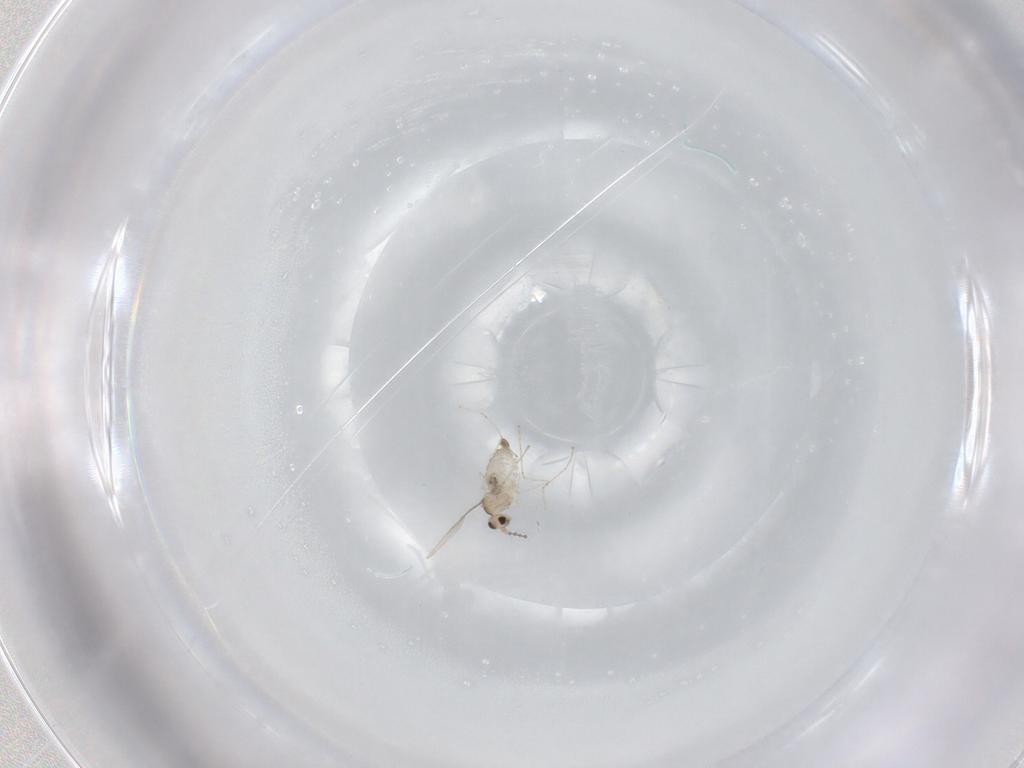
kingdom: Animalia
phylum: Arthropoda
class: Insecta
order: Diptera
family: Cecidomyiidae
